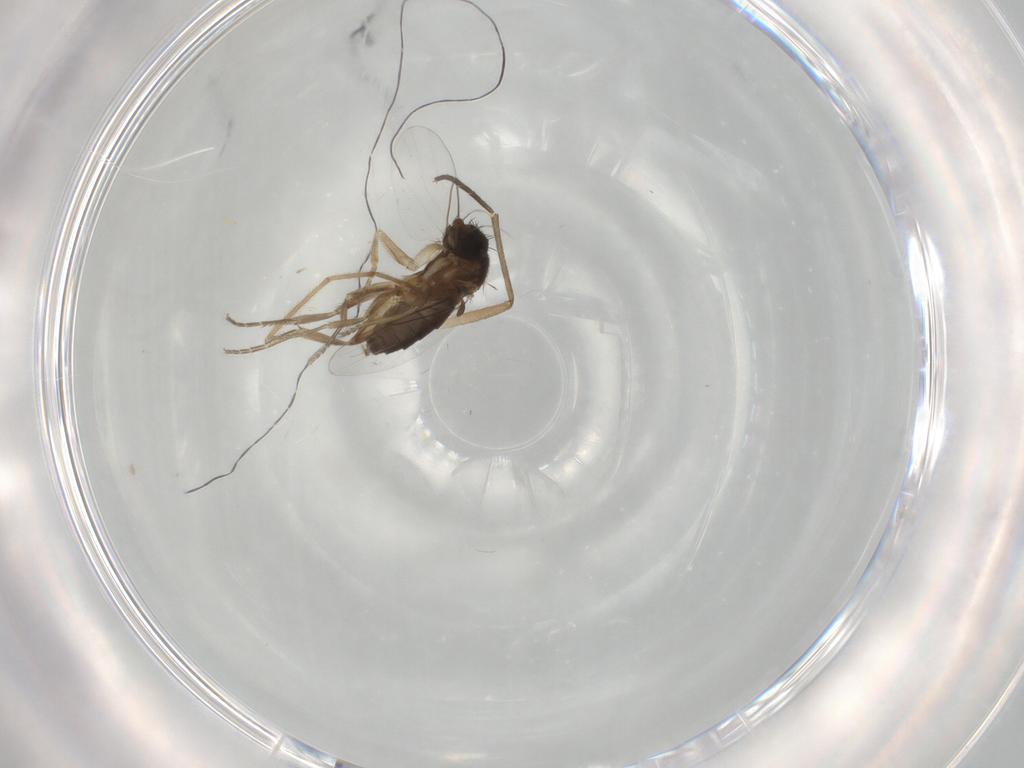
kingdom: Animalia
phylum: Arthropoda
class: Insecta
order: Diptera
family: Phoridae
